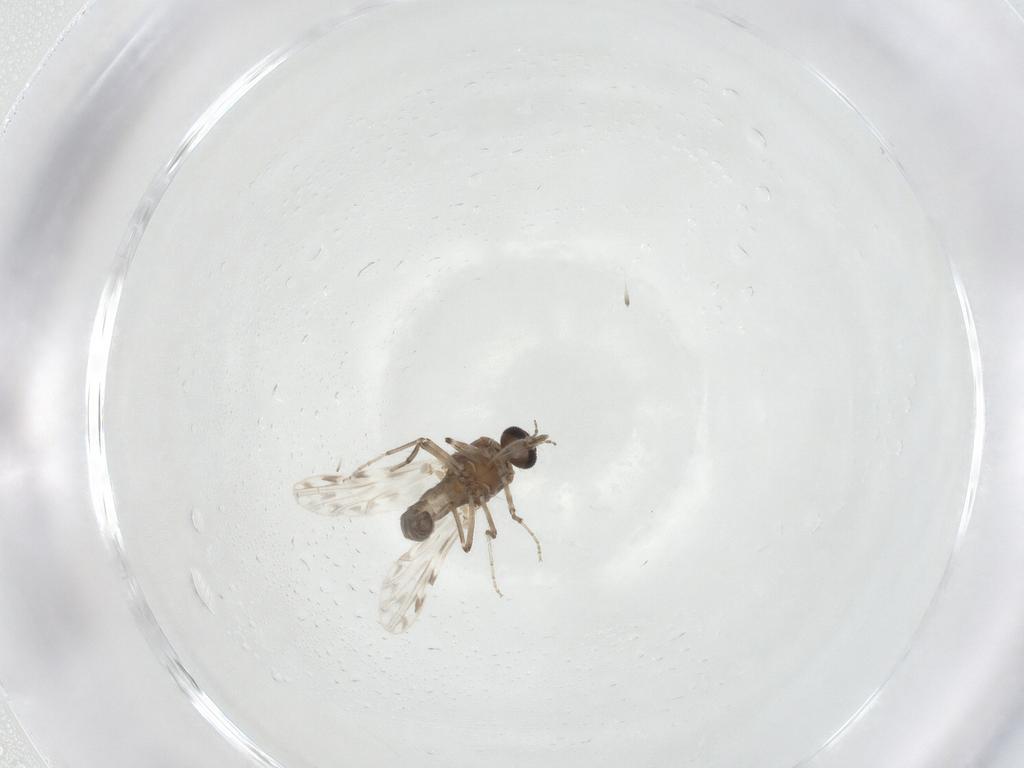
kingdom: Animalia
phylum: Arthropoda
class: Insecta
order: Diptera
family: Ceratopogonidae
